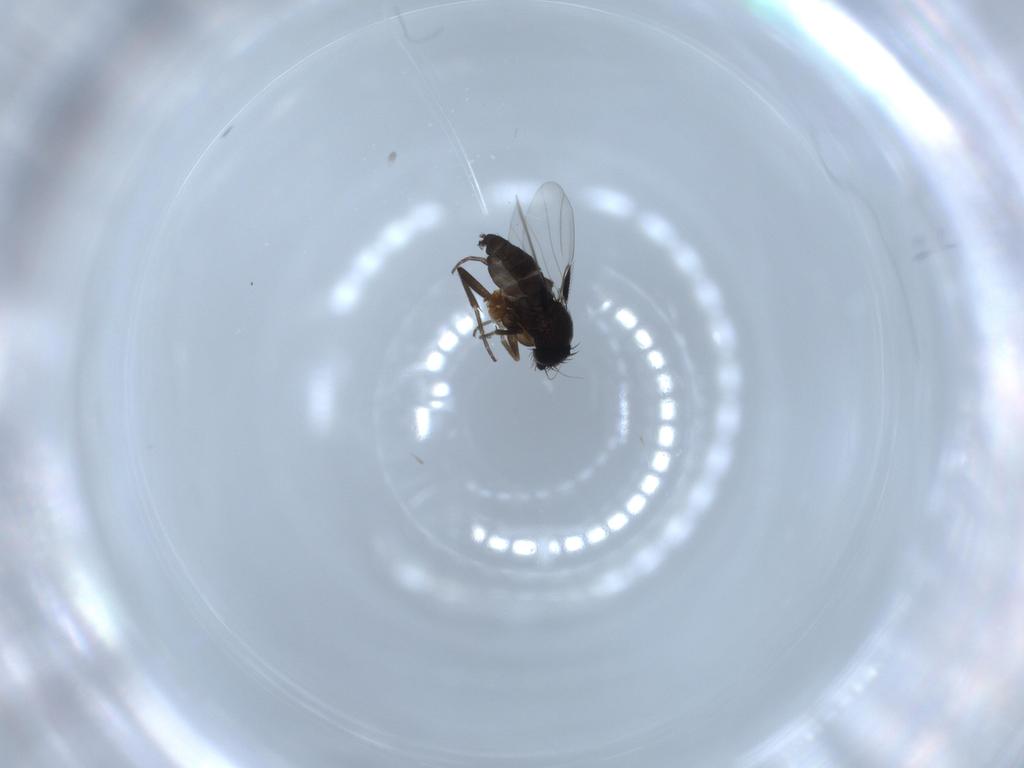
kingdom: Animalia
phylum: Arthropoda
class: Insecta
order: Diptera
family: Phoridae
